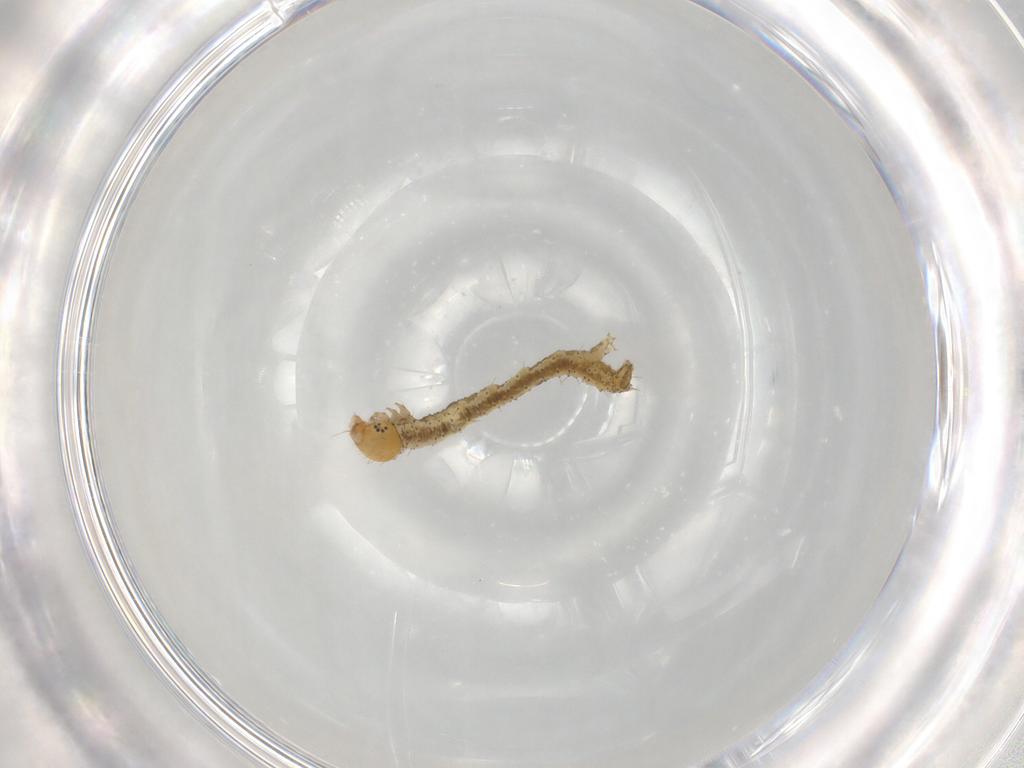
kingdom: Animalia
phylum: Arthropoda
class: Insecta
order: Lepidoptera
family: Geometridae
